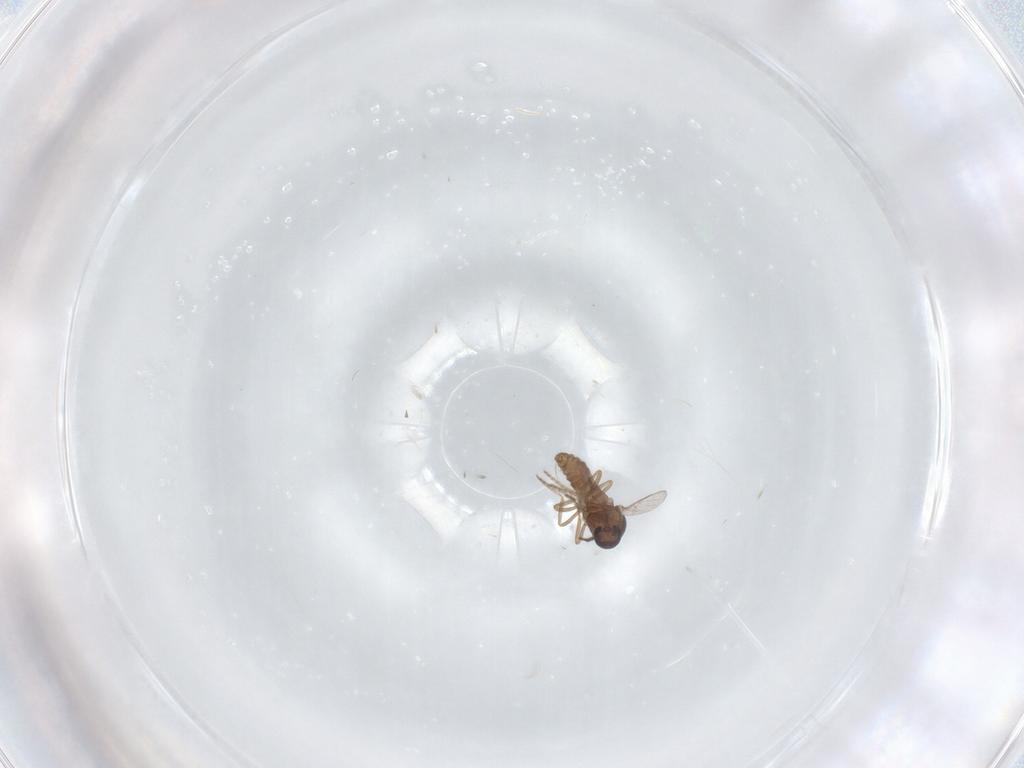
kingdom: Animalia
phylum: Arthropoda
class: Insecta
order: Diptera
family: Ceratopogonidae
